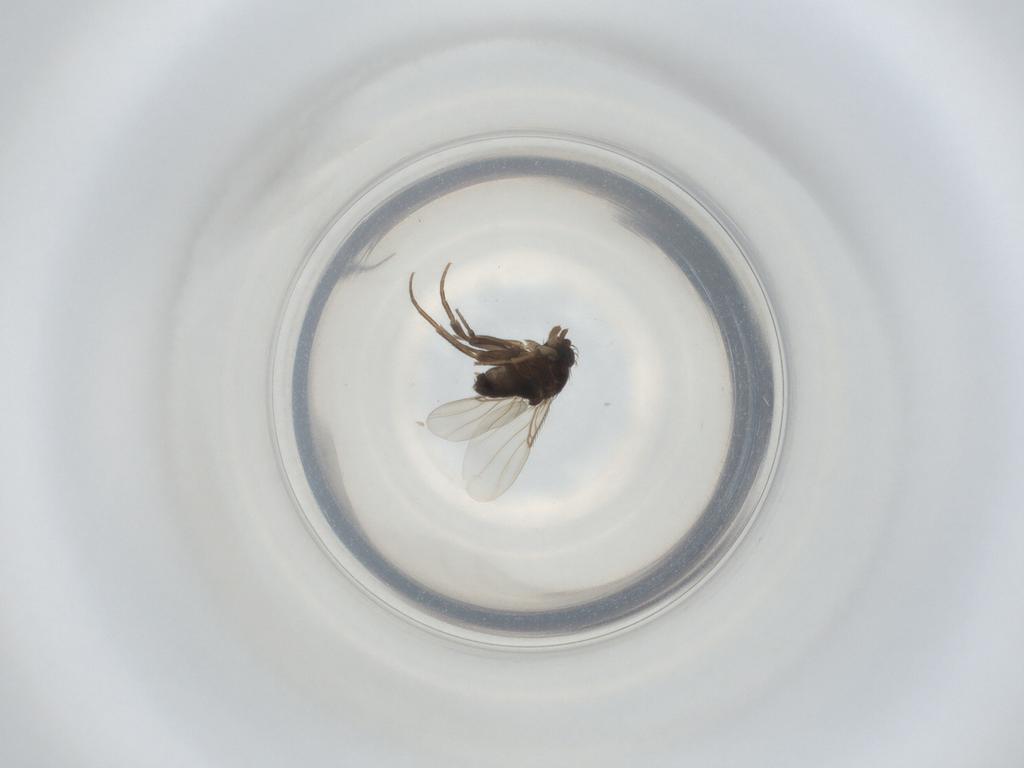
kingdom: Animalia
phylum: Arthropoda
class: Insecta
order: Diptera
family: Phoridae
